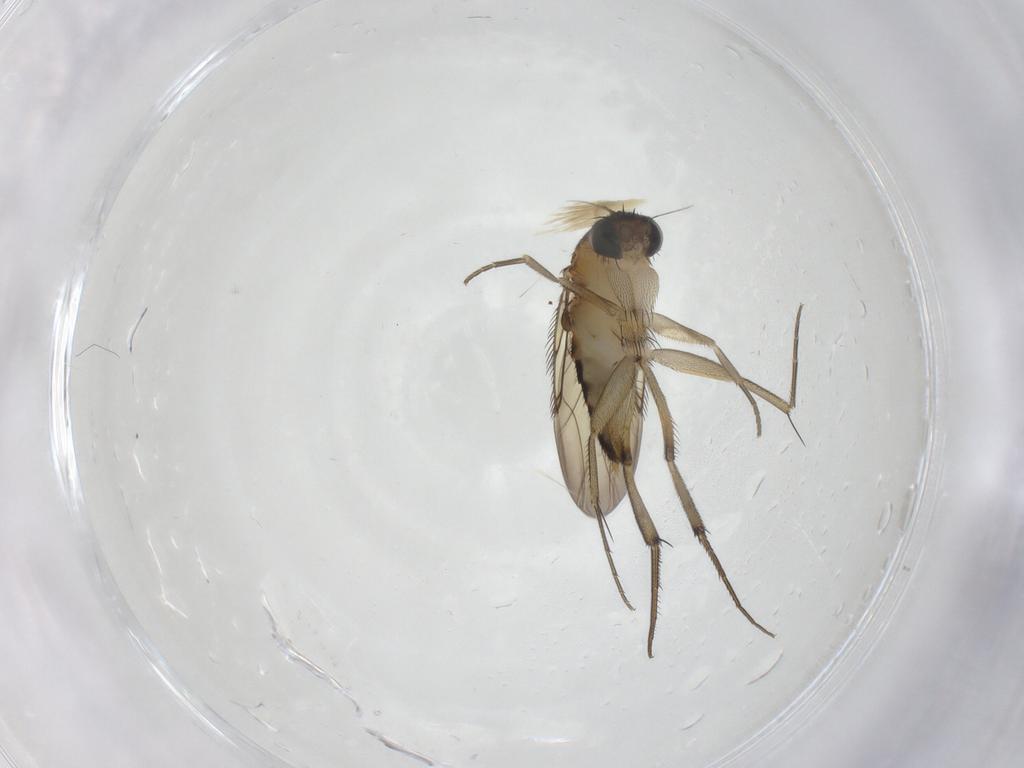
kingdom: Animalia
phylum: Arthropoda
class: Insecta
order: Diptera
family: Phoridae
